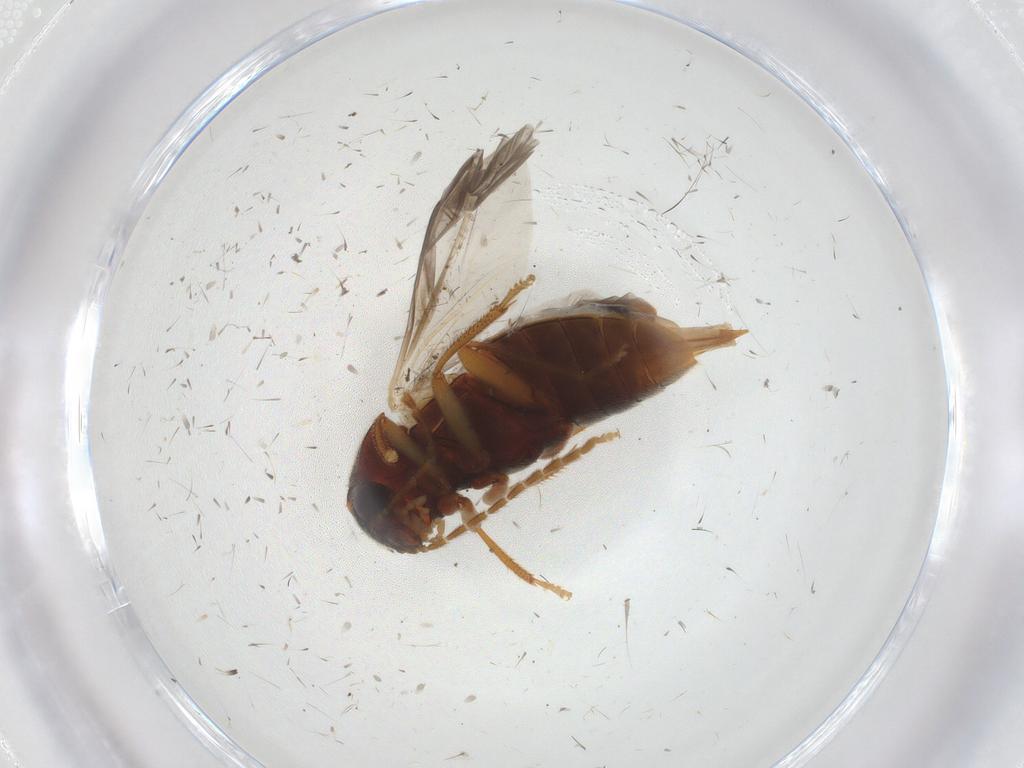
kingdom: Animalia
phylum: Arthropoda
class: Insecta
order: Coleoptera
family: Ptilodactylidae
